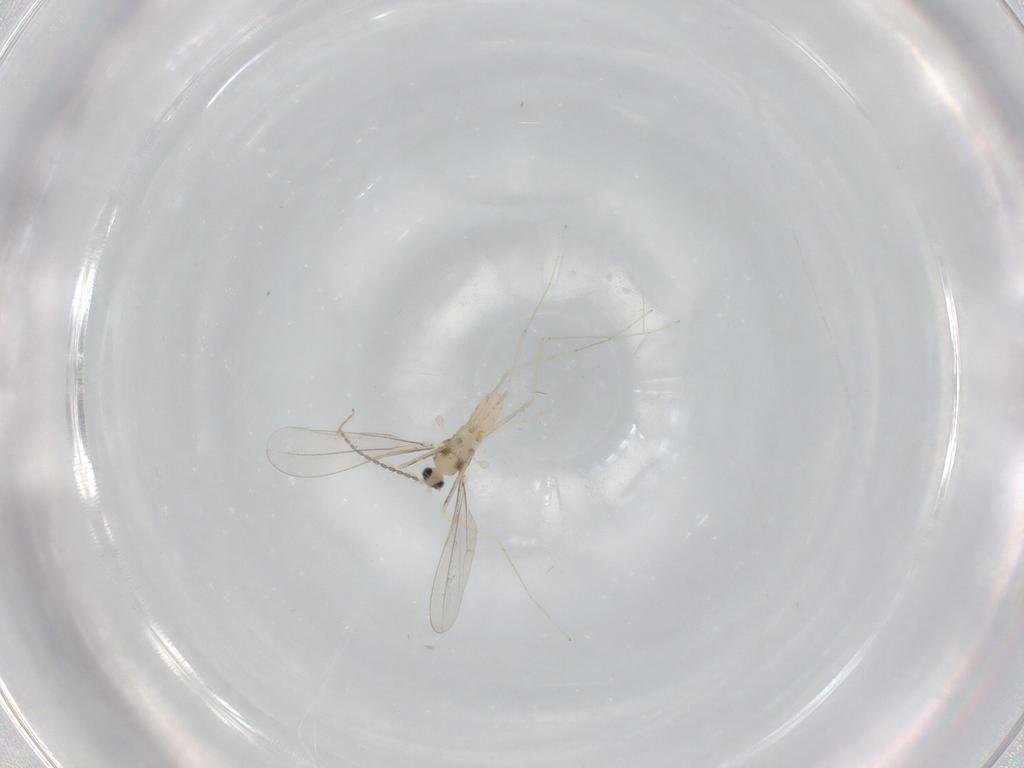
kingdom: Animalia
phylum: Arthropoda
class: Insecta
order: Diptera
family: Cecidomyiidae
